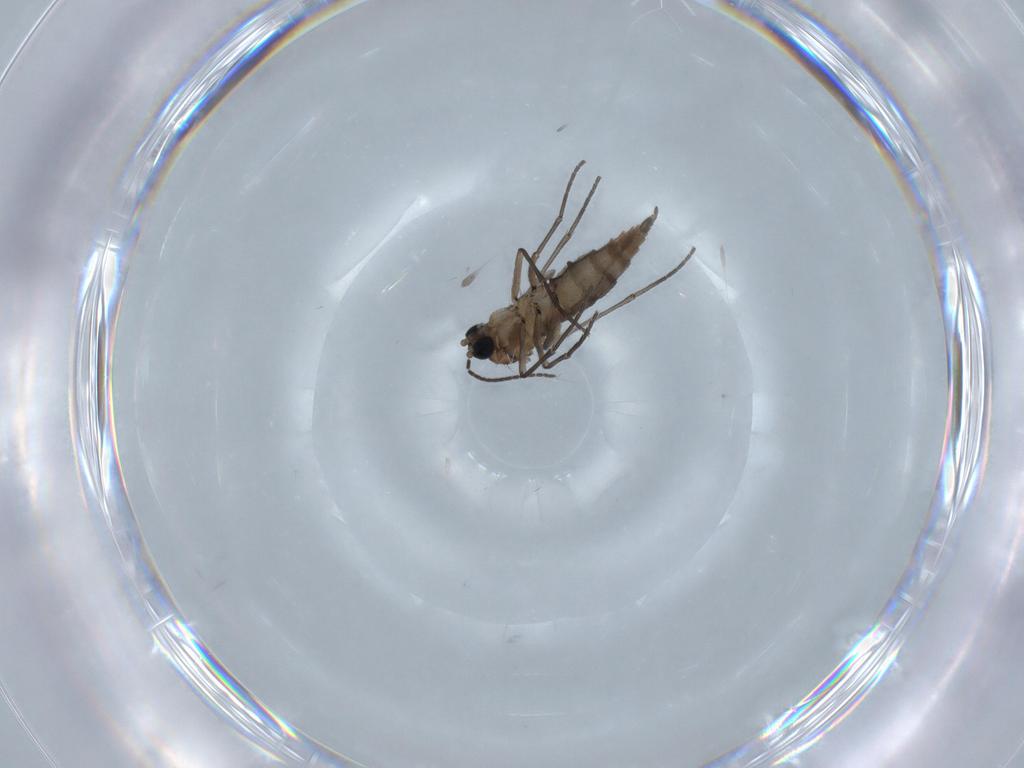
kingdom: Animalia
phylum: Arthropoda
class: Insecta
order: Diptera
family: Sciaridae
